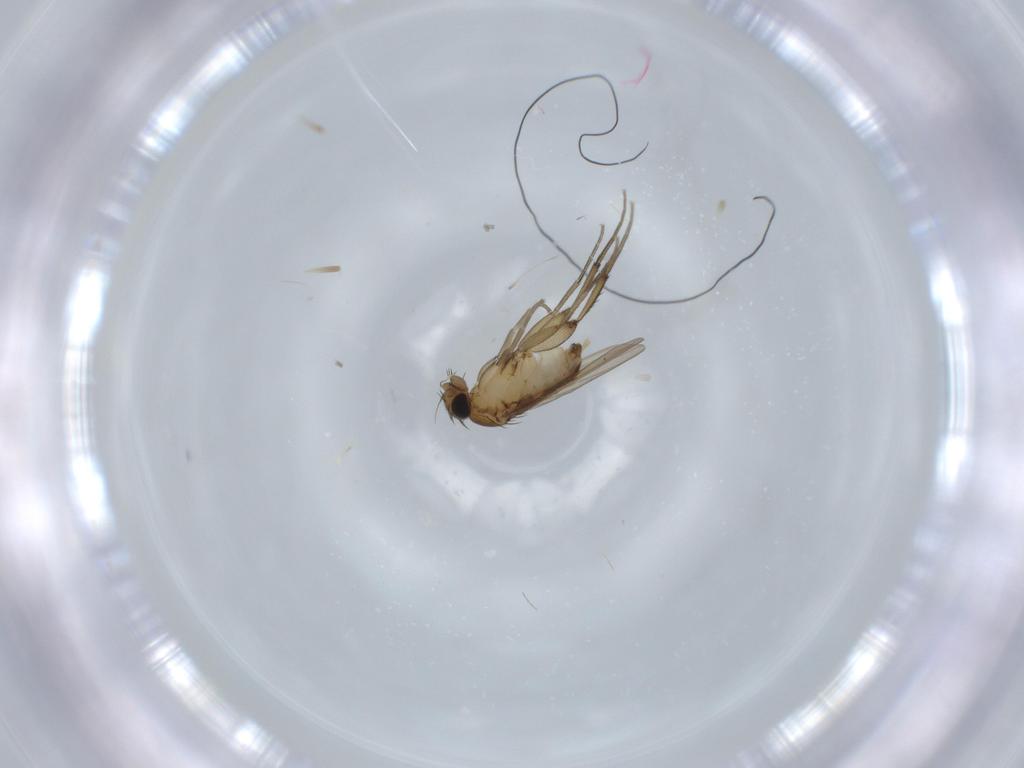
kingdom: Animalia
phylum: Arthropoda
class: Insecta
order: Diptera
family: Phoridae
